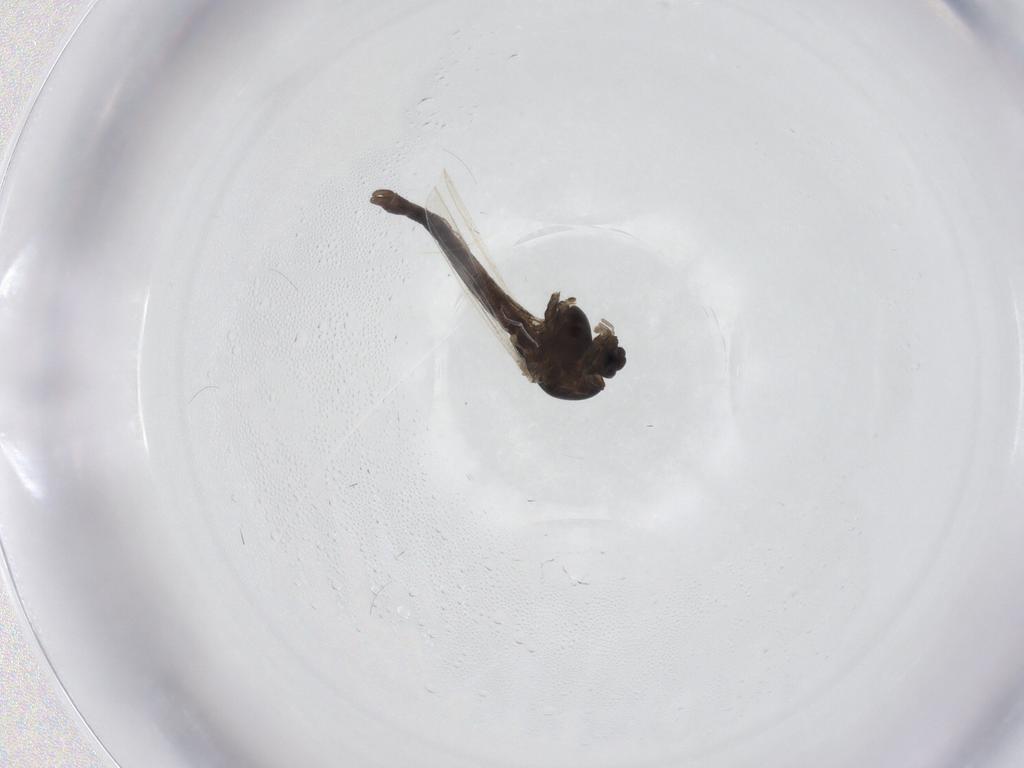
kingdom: Animalia
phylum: Arthropoda
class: Insecta
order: Diptera
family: Chironomidae
